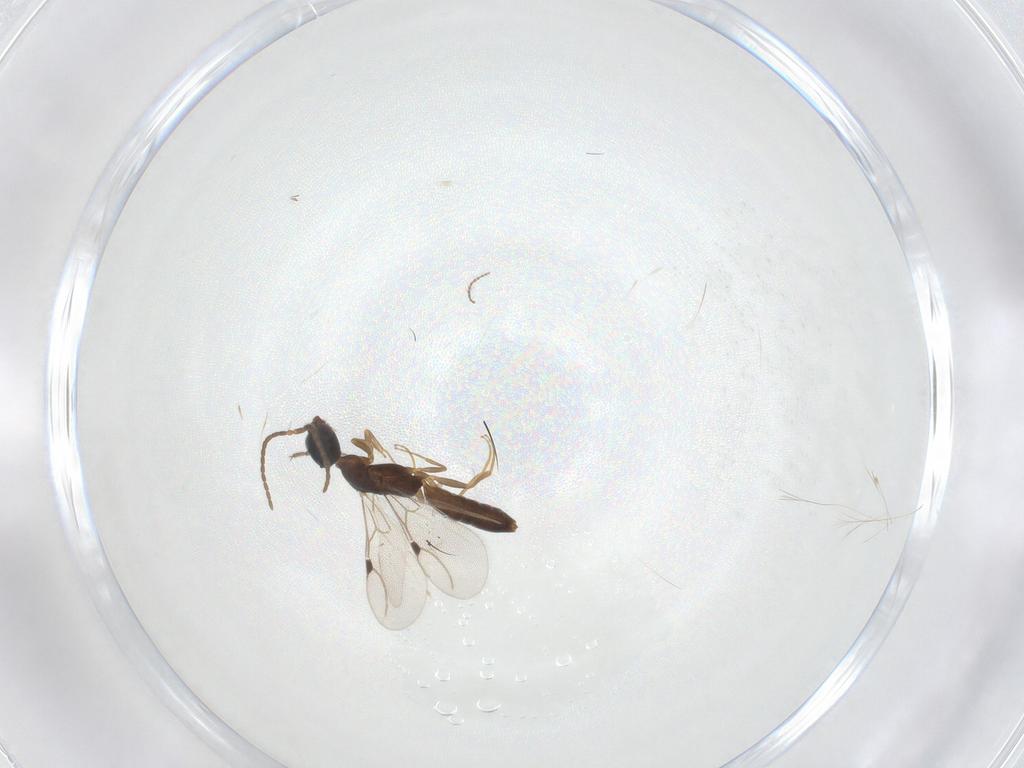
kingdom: Animalia
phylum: Arthropoda
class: Insecta
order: Hymenoptera
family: Bethylidae
